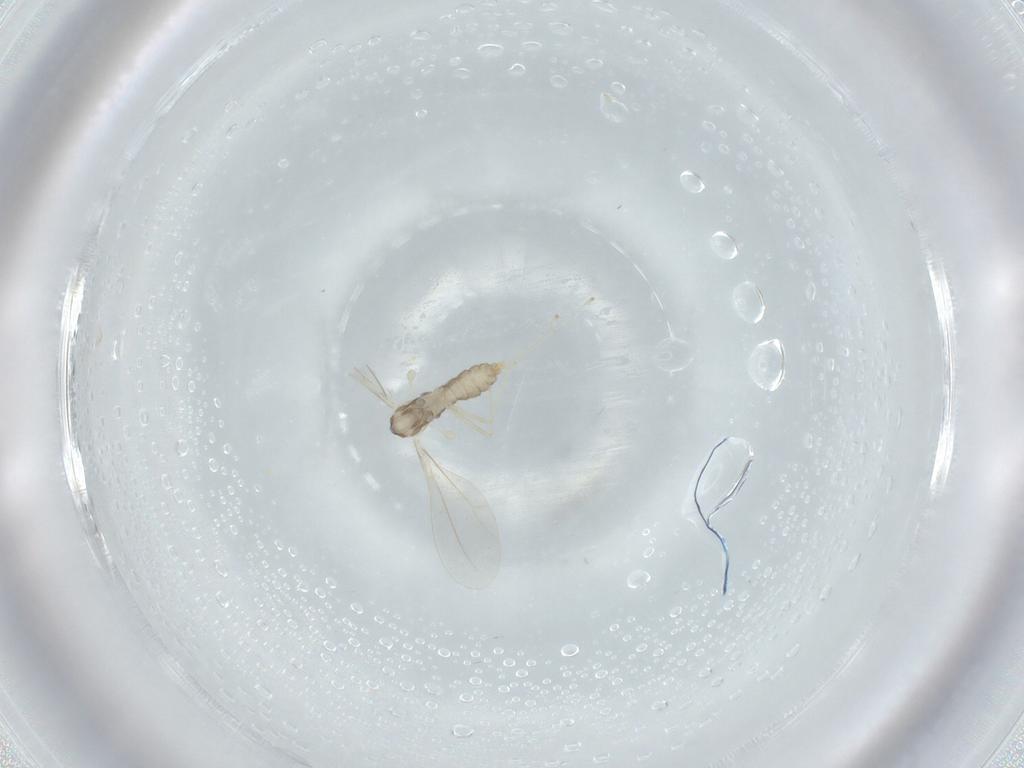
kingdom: Animalia
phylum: Arthropoda
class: Insecta
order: Diptera
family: Cecidomyiidae
